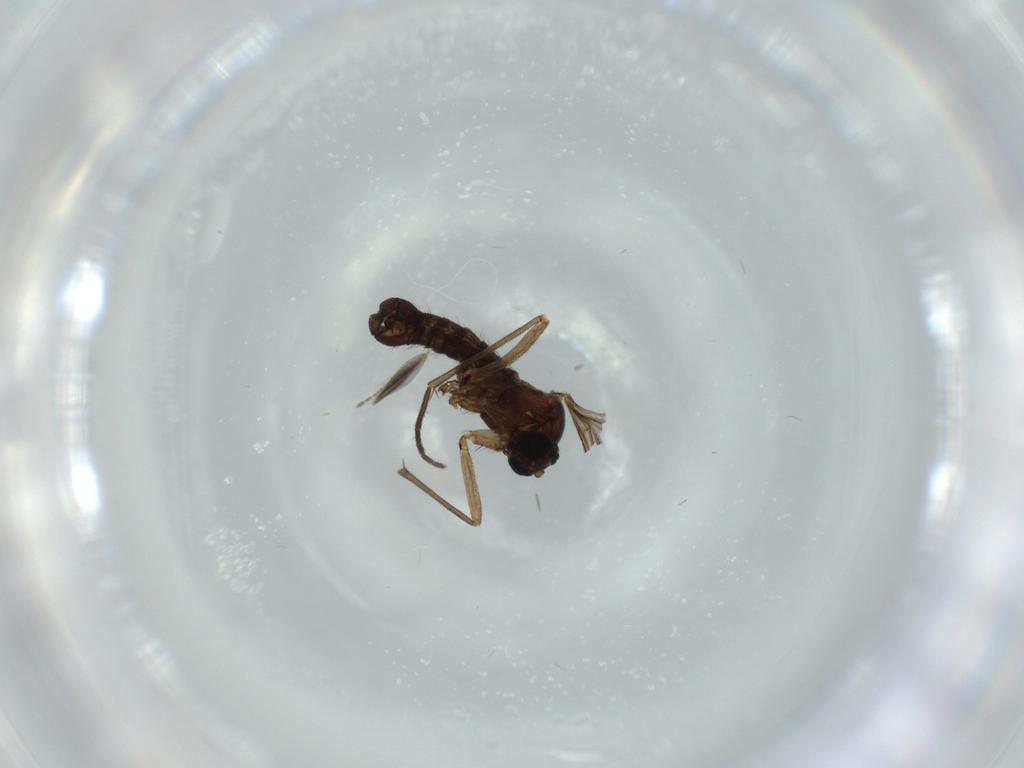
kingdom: Animalia
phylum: Arthropoda
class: Insecta
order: Diptera
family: Sciaridae
